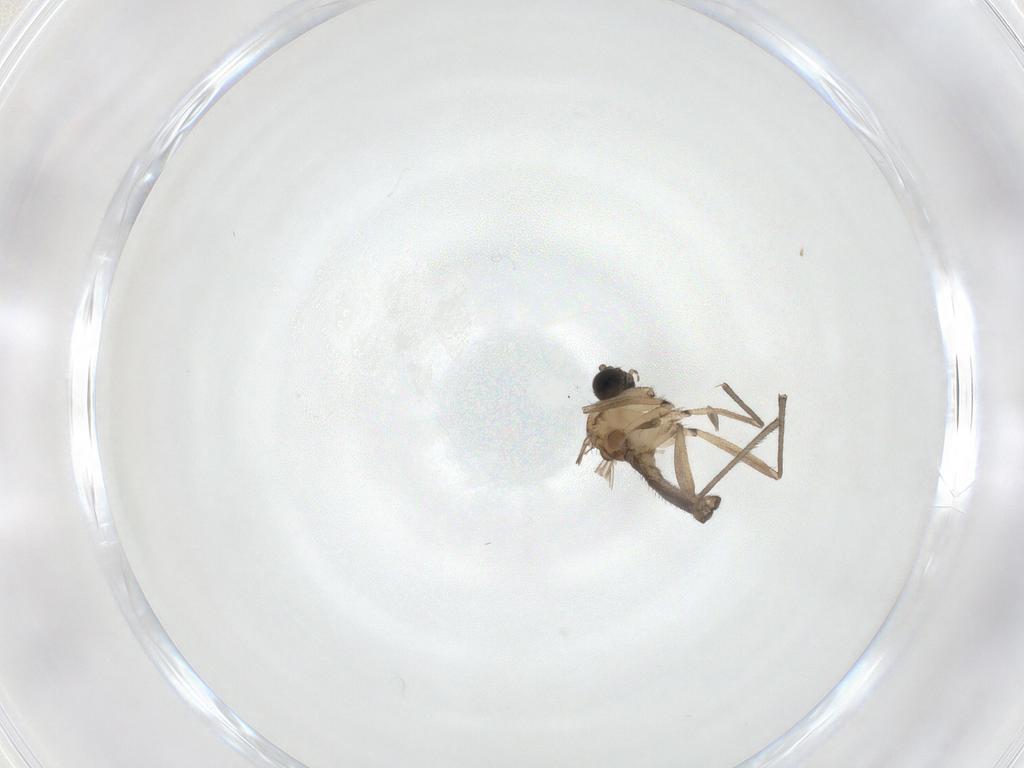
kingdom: Animalia
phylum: Arthropoda
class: Insecta
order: Diptera
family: Sciaridae
